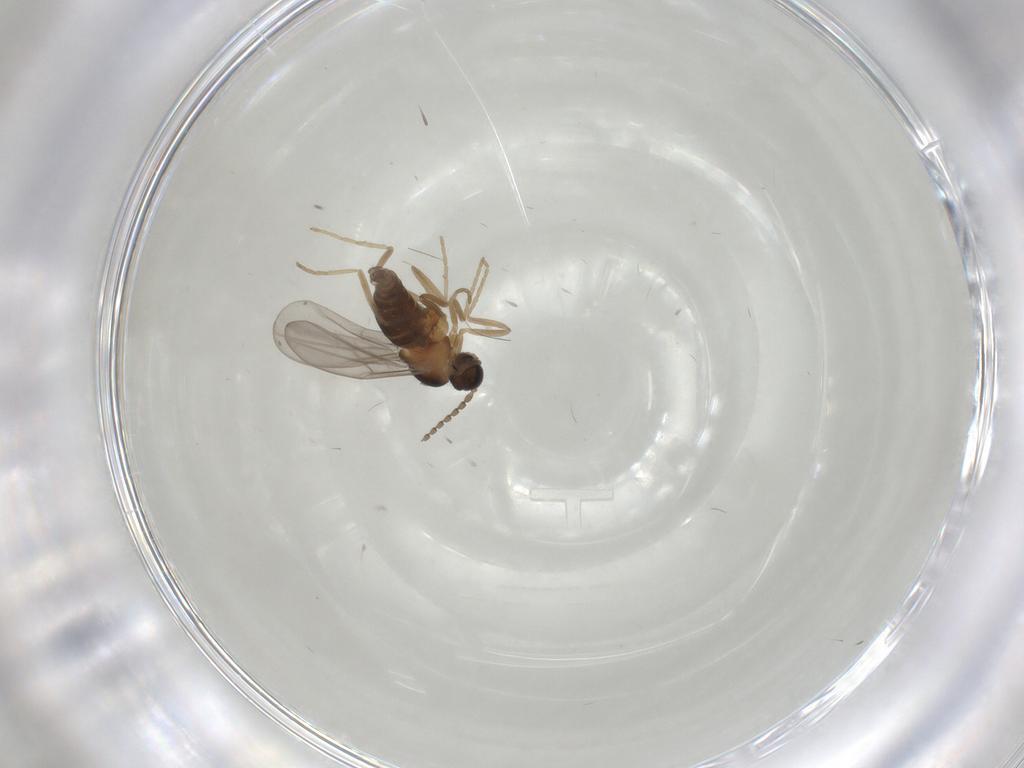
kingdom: Animalia
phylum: Arthropoda
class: Insecta
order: Diptera
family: Cecidomyiidae
